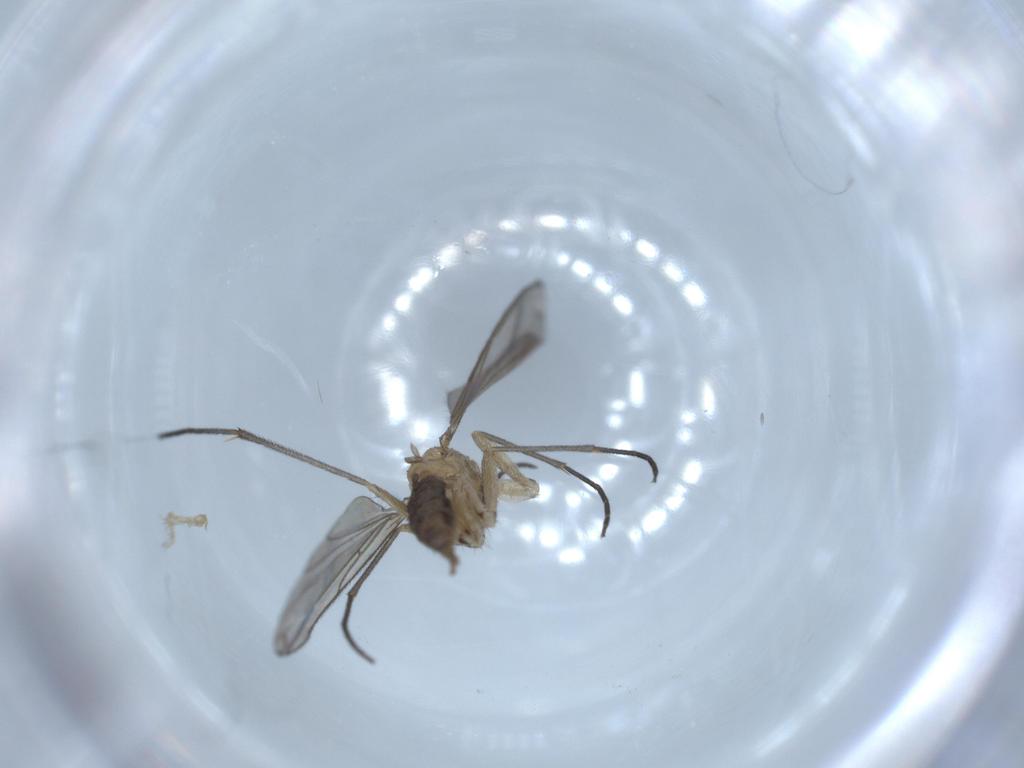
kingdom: Animalia
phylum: Arthropoda
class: Insecta
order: Diptera
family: Sciaridae
